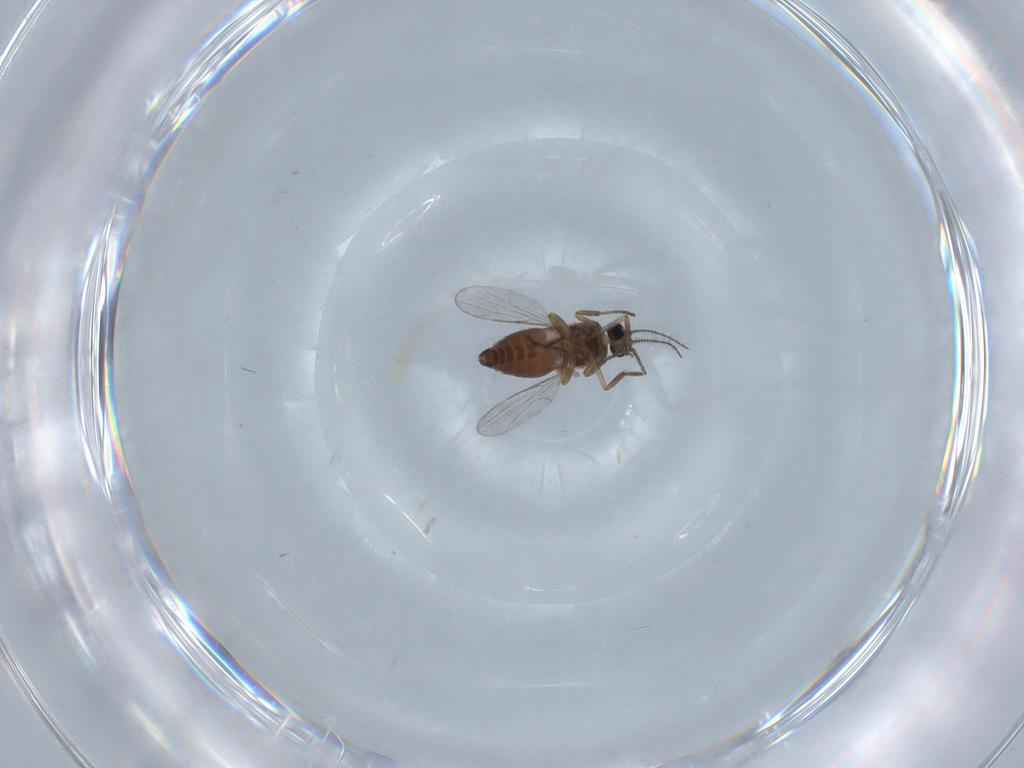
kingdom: Animalia
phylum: Arthropoda
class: Insecta
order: Diptera
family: Ceratopogonidae
